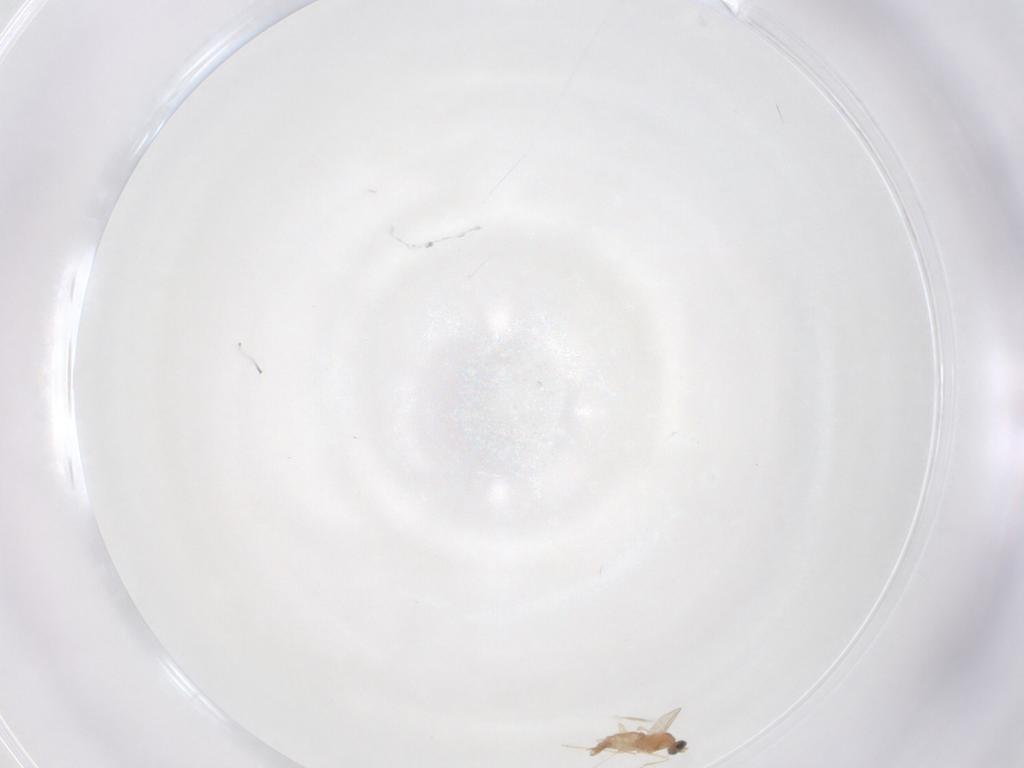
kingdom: Animalia
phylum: Arthropoda
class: Insecta
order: Diptera
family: Cecidomyiidae
